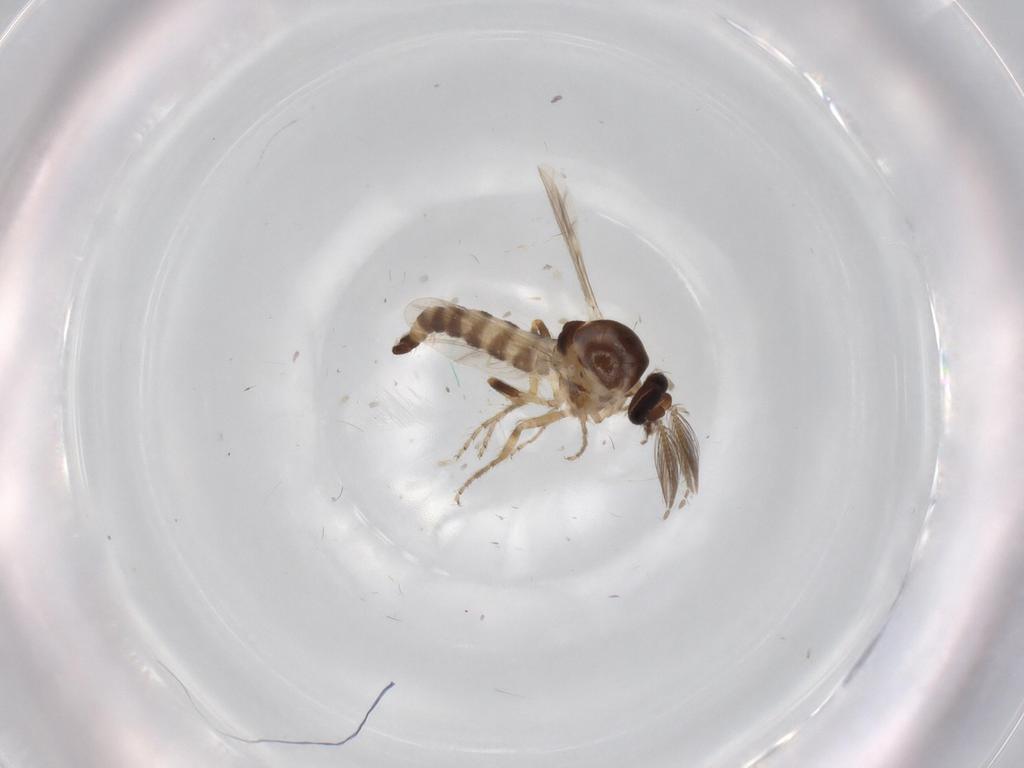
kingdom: Animalia
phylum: Arthropoda
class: Insecta
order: Diptera
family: Ceratopogonidae
